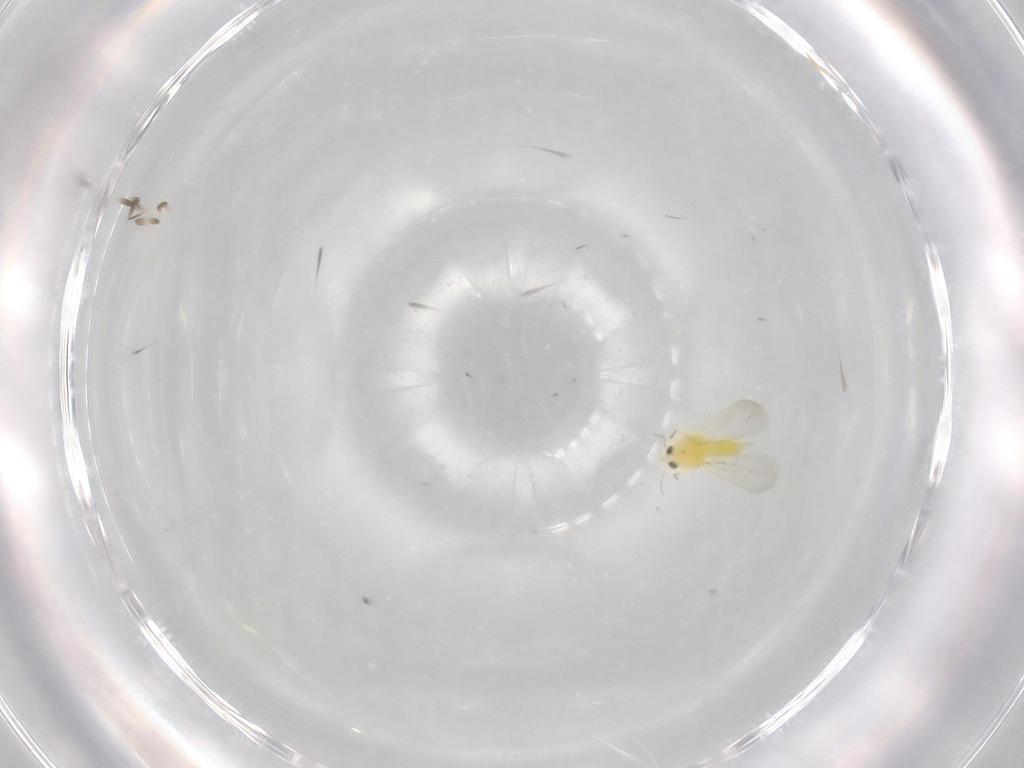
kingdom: Animalia
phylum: Arthropoda
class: Insecta
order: Hemiptera
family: Aleyrodidae
